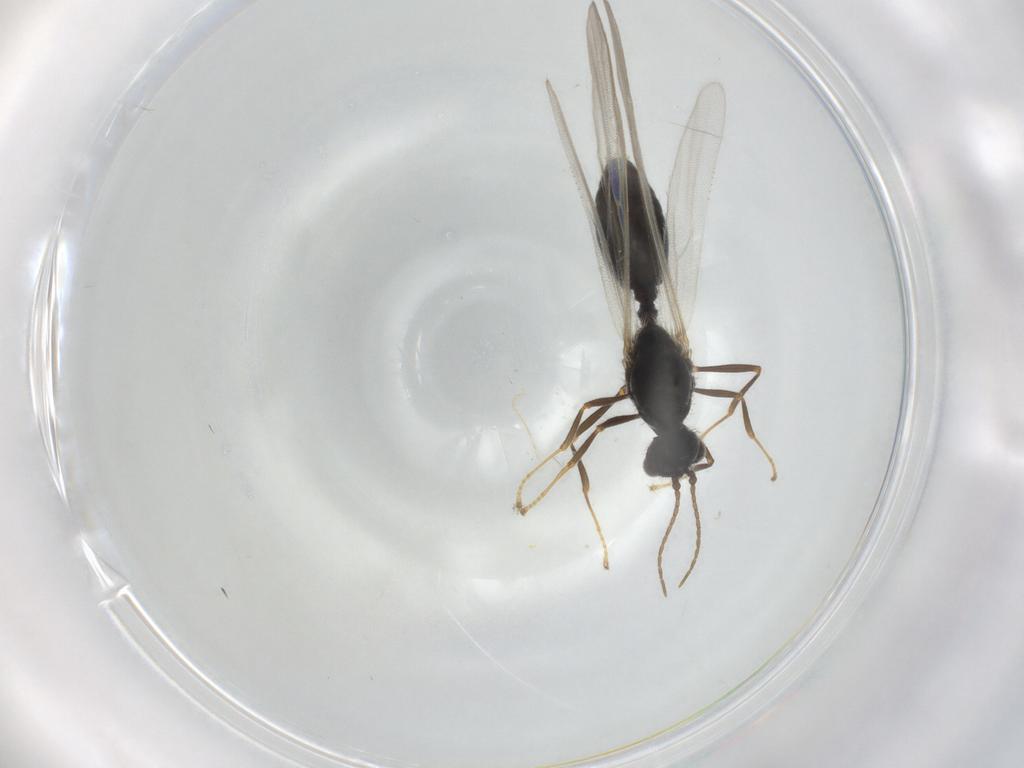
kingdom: Animalia
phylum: Arthropoda
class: Insecta
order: Hymenoptera
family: Formicidae
